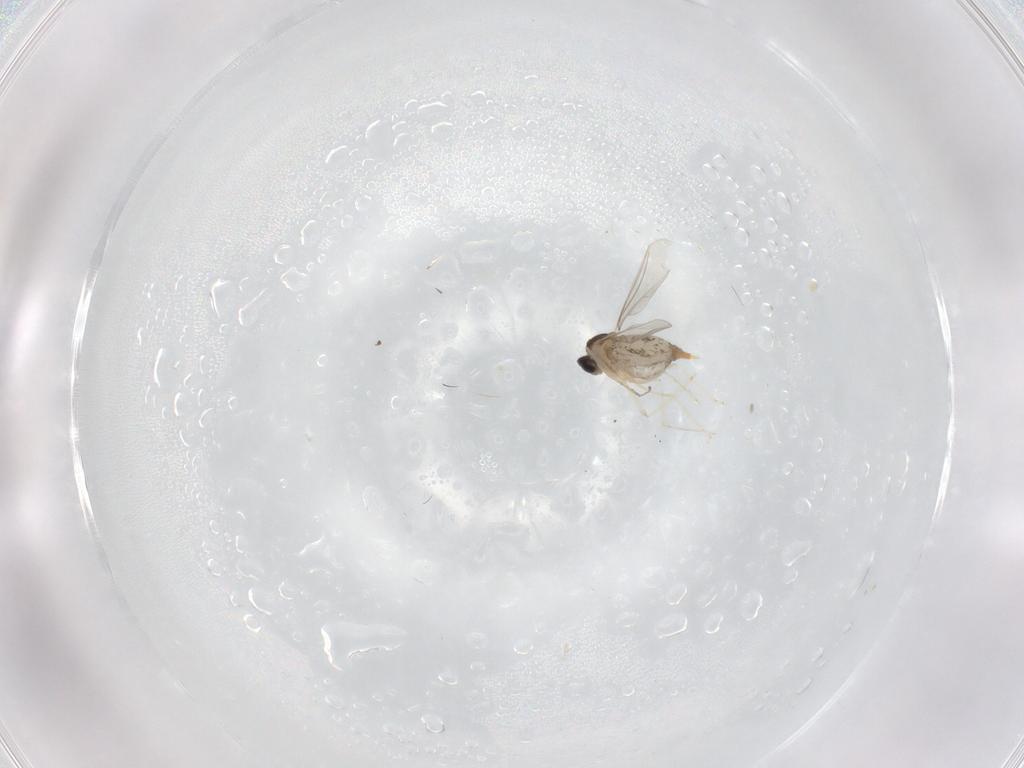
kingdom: Animalia
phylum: Arthropoda
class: Insecta
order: Diptera
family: Cecidomyiidae
